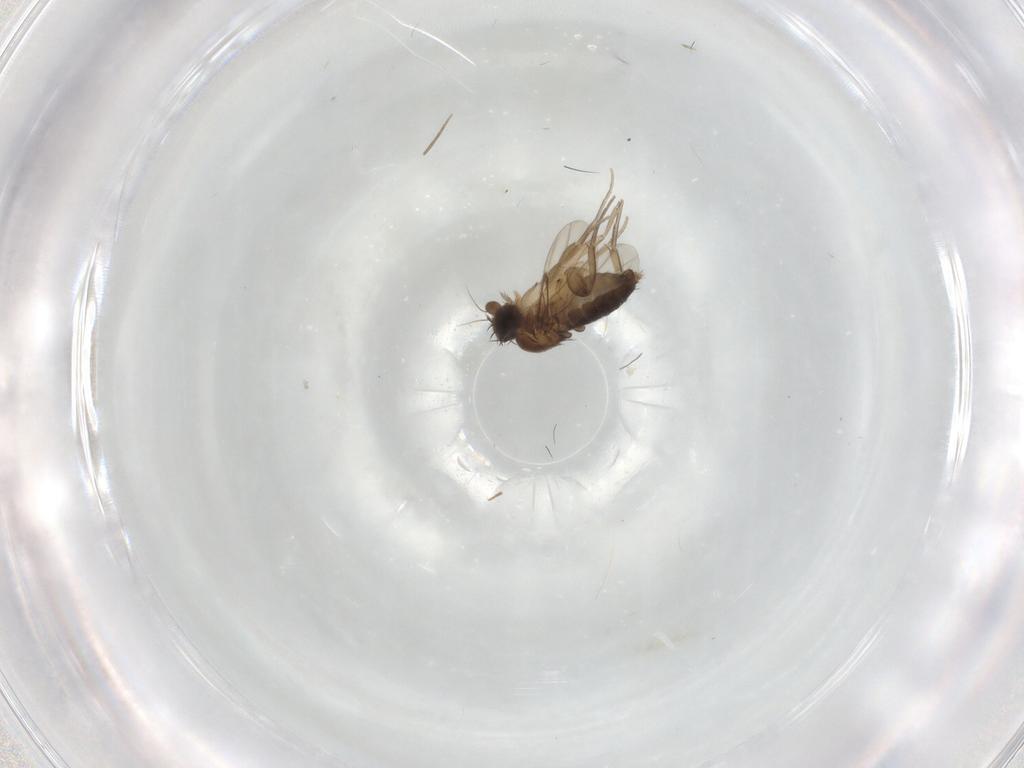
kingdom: Animalia
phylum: Arthropoda
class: Insecta
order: Diptera
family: Phoridae
